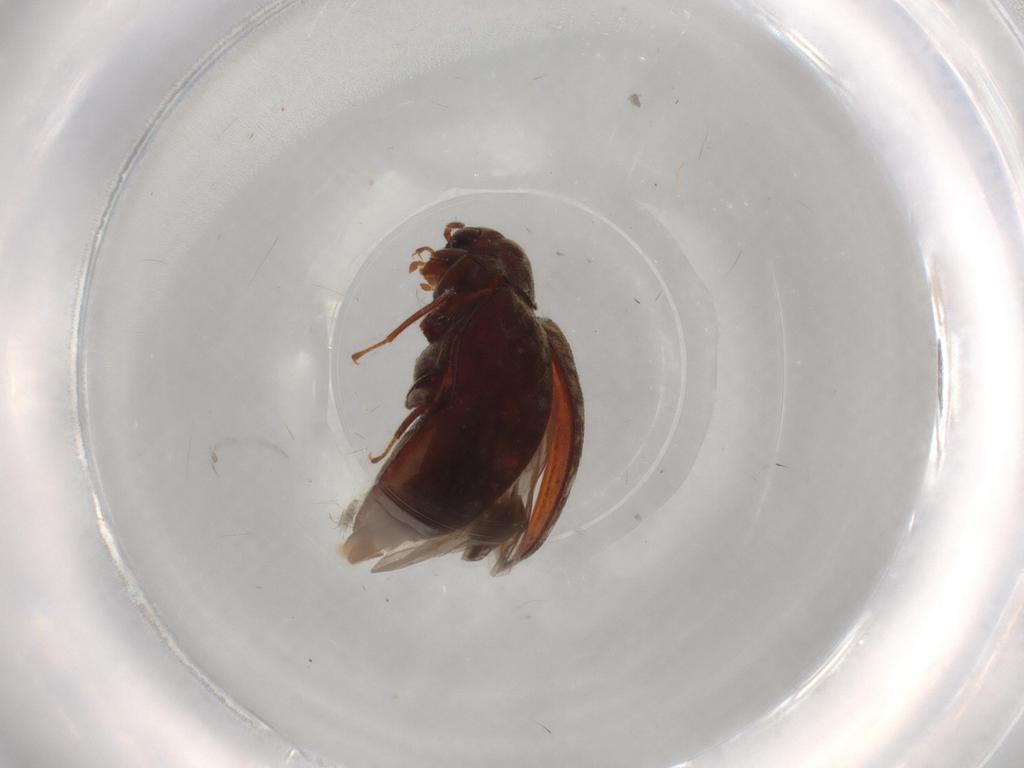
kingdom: Animalia
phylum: Arthropoda
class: Insecta
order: Coleoptera
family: Limnichidae
